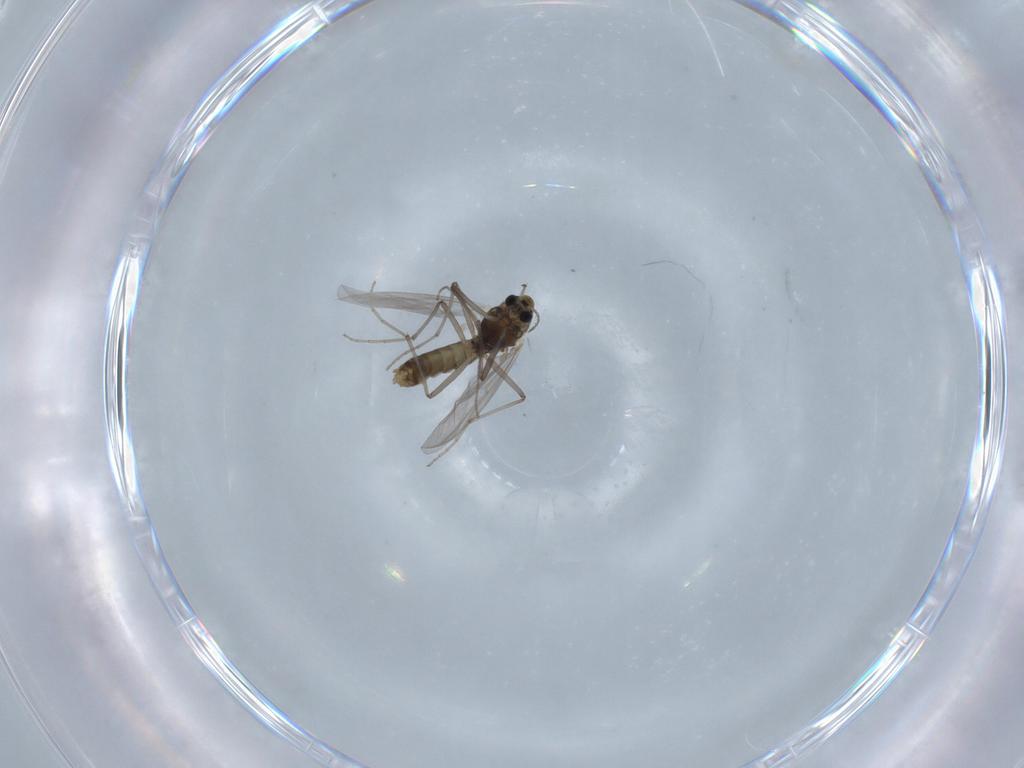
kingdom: Animalia
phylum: Arthropoda
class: Insecta
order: Diptera
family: Chironomidae
